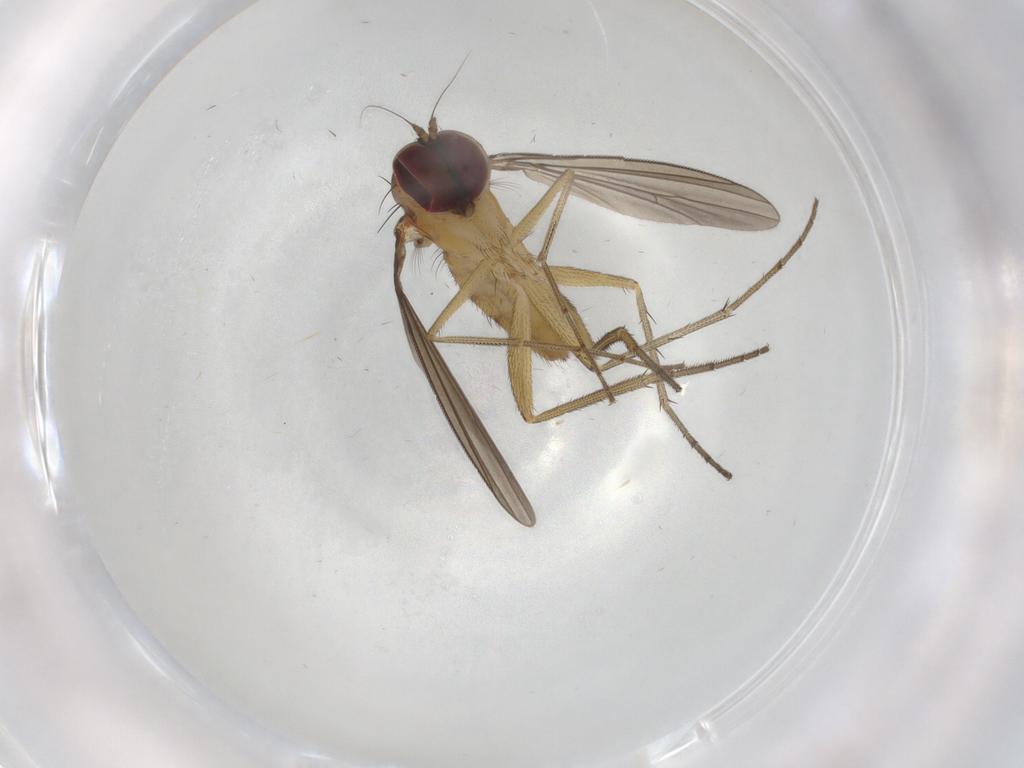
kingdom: Animalia
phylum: Arthropoda
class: Insecta
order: Diptera
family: Dolichopodidae
